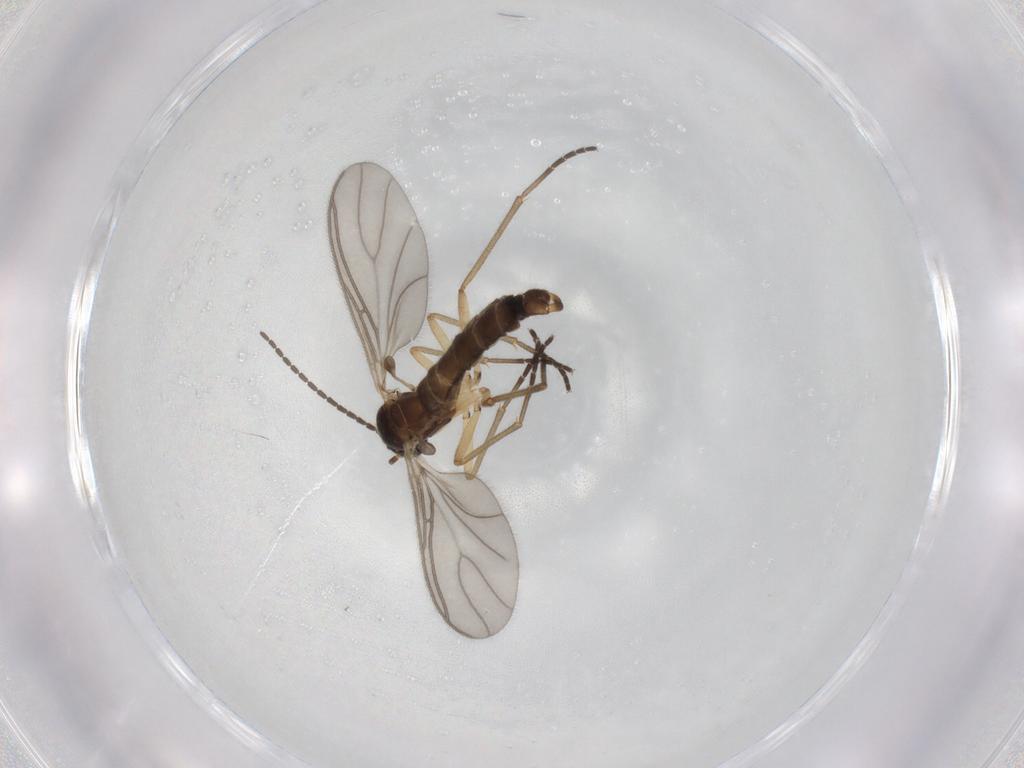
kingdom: Animalia
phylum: Arthropoda
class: Insecta
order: Diptera
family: Sciaridae
